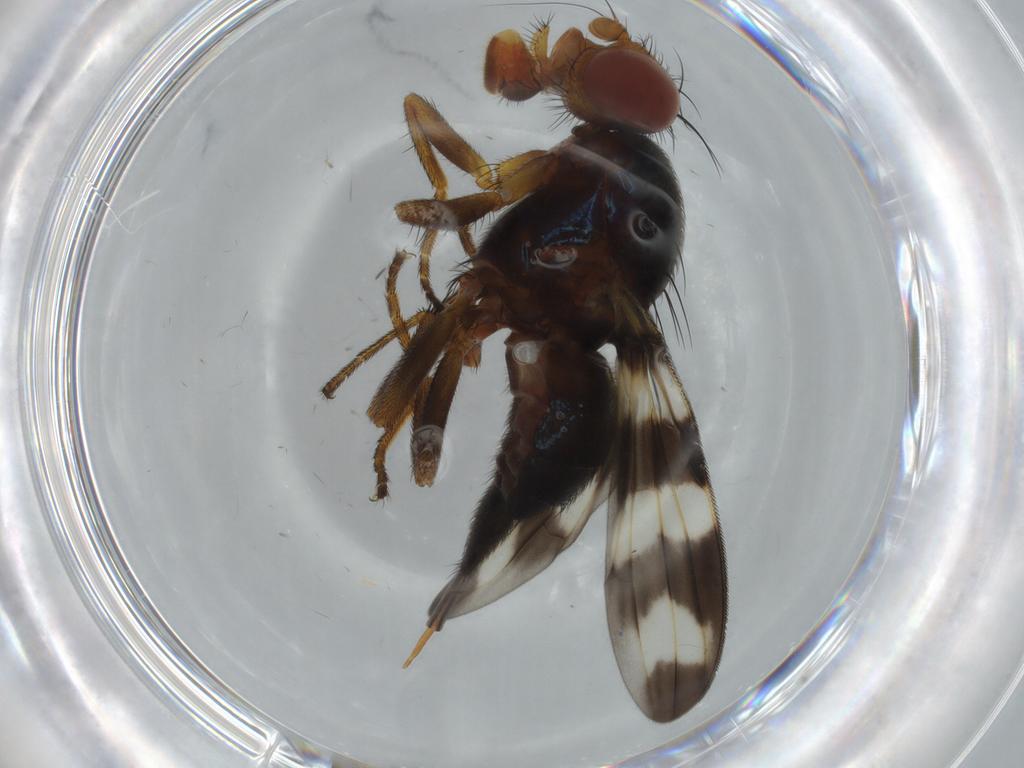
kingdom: Animalia
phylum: Arthropoda
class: Insecta
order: Diptera
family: Ulidiidae
